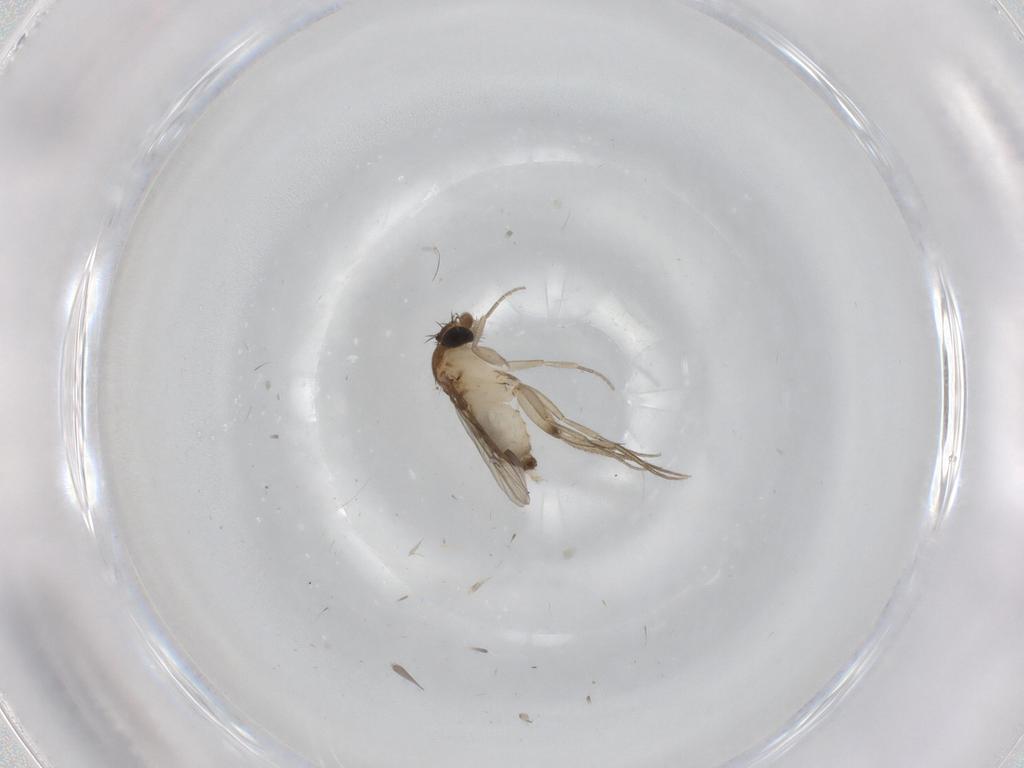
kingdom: Animalia
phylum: Arthropoda
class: Insecta
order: Diptera
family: Phoridae
